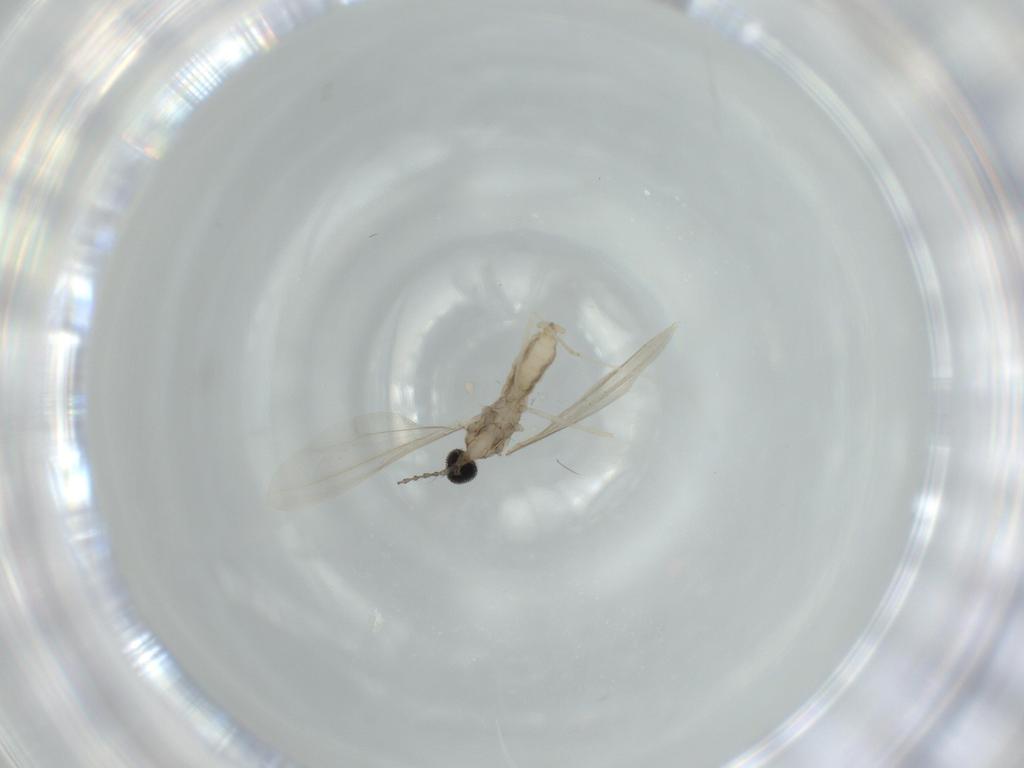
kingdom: Animalia
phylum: Arthropoda
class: Insecta
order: Diptera
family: Cecidomyiidae
